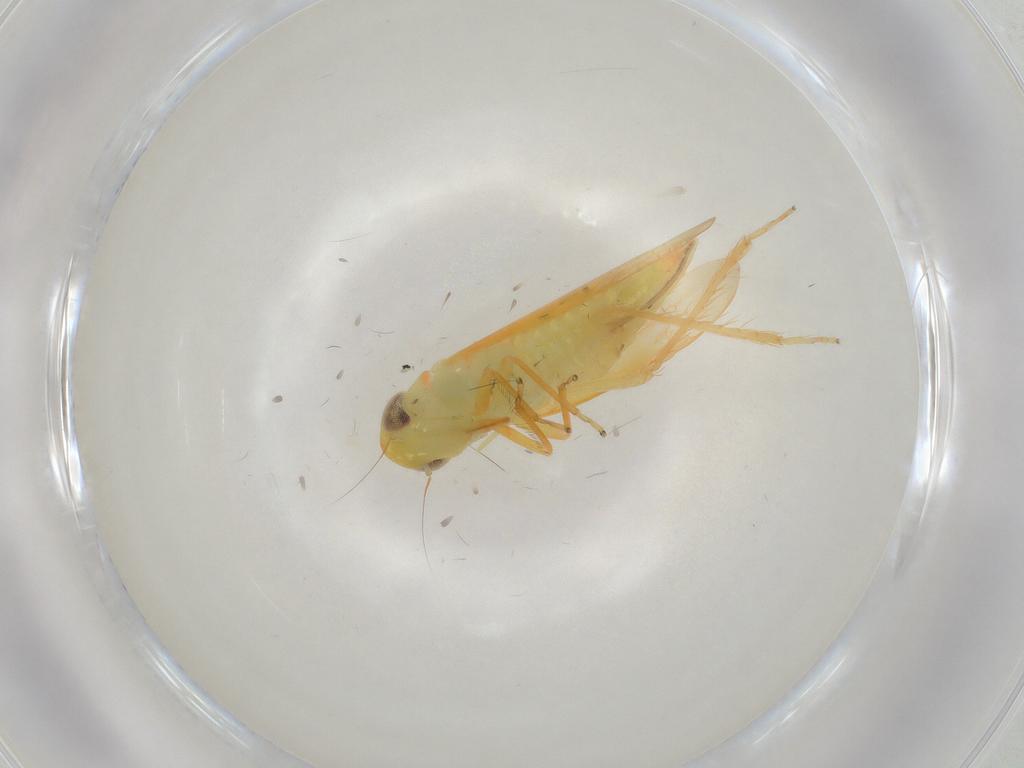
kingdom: Animalia
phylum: Arthropoda
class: Insecta
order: Hemiptera
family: Cicadellidae
